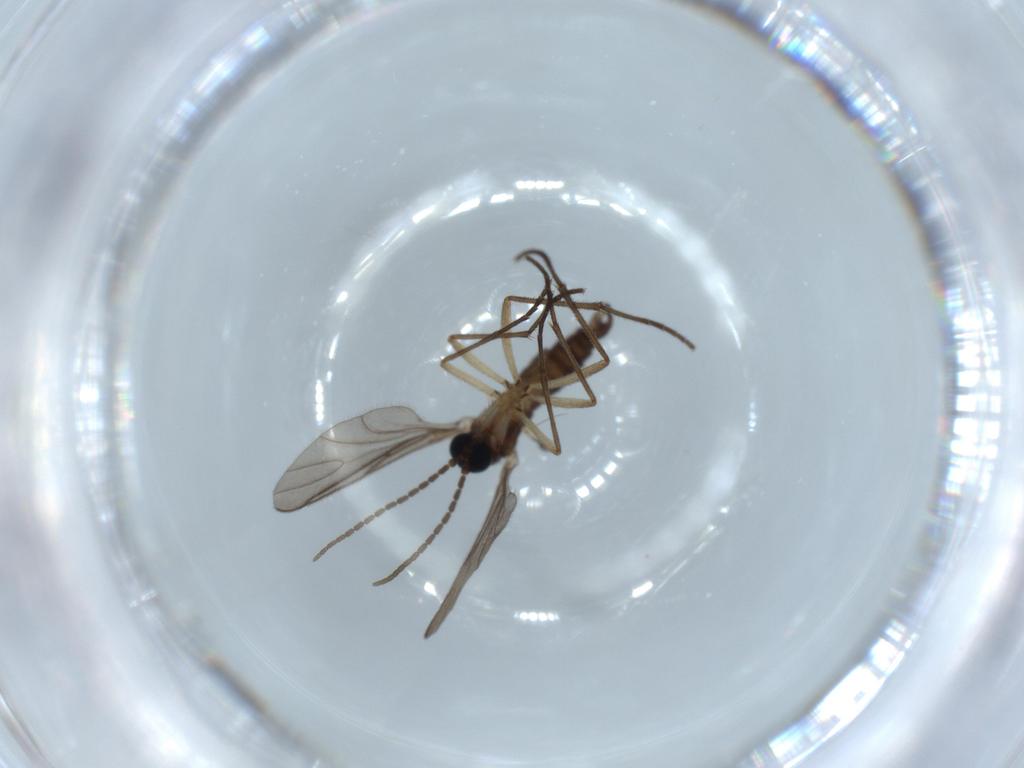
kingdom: Animalia
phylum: Arthropoda
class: Insecta
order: Diptera
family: Sciaridae
